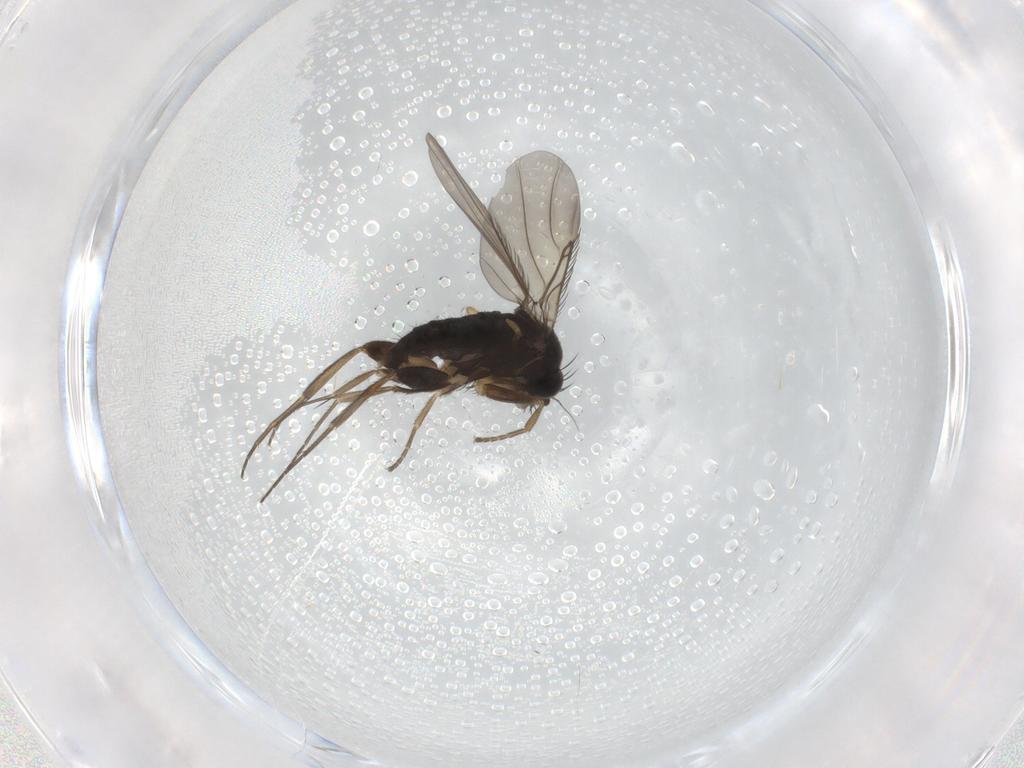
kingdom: Animalia
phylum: Arthropoda
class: Insecta
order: Diptera
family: Phoridae
